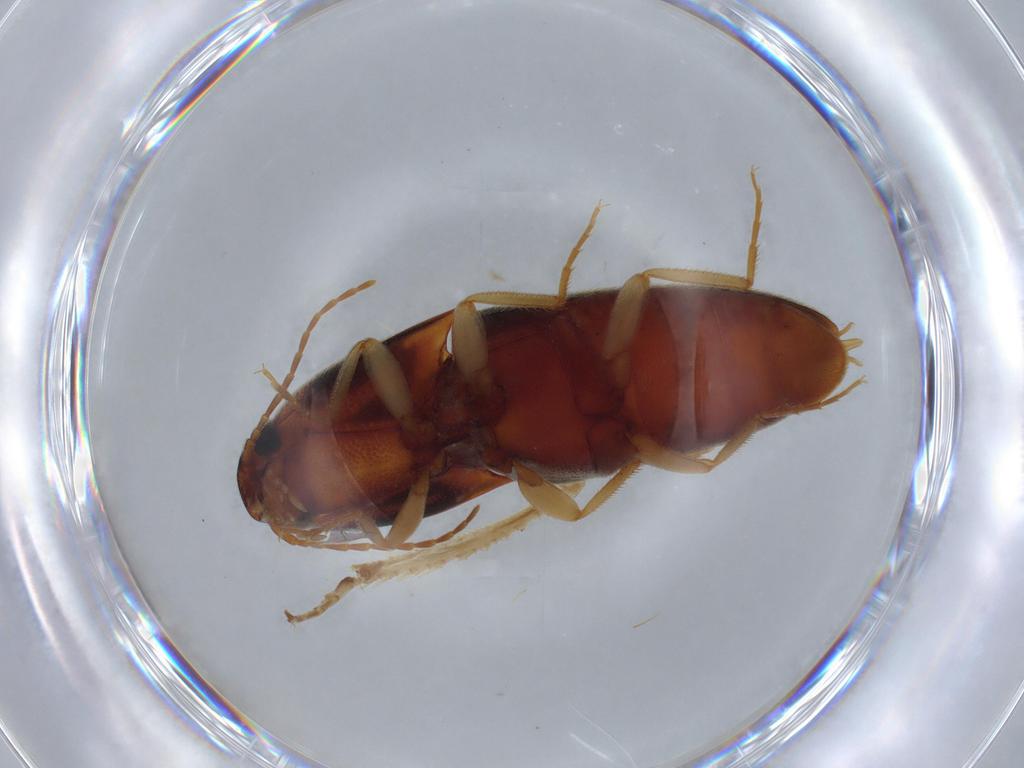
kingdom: Animalia
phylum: Arthropoda
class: Insecta
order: Coleoptera
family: Elateridae
